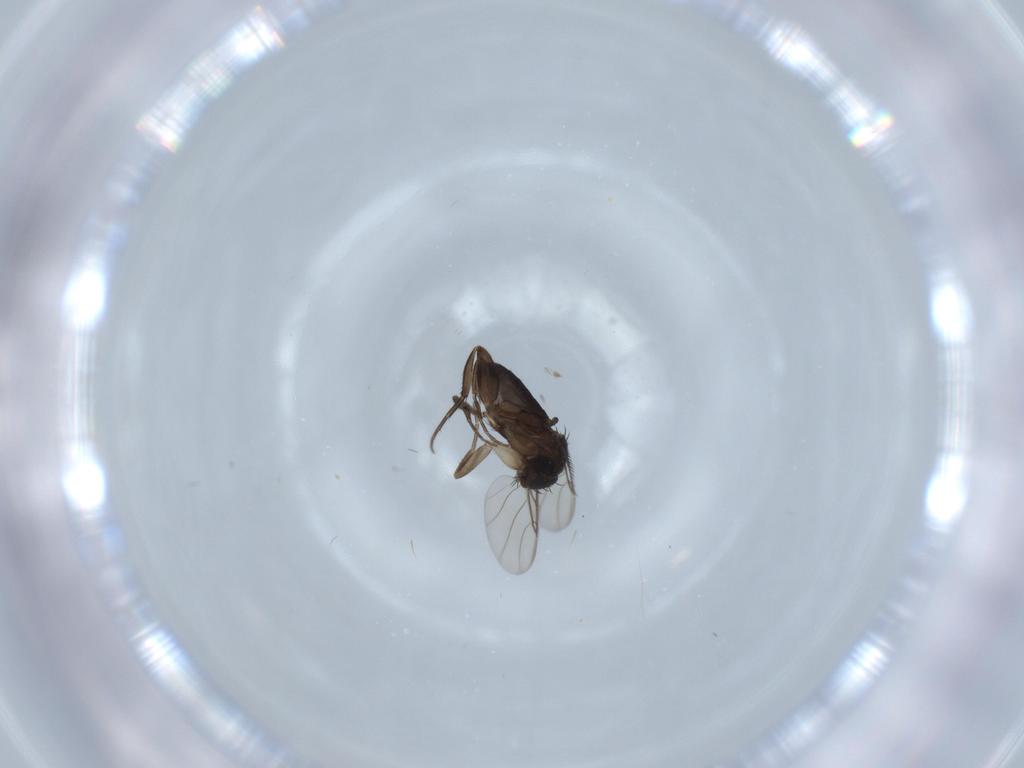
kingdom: Animalia
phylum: Arthropoda
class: Insecta
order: Diptera
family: Phoridae
